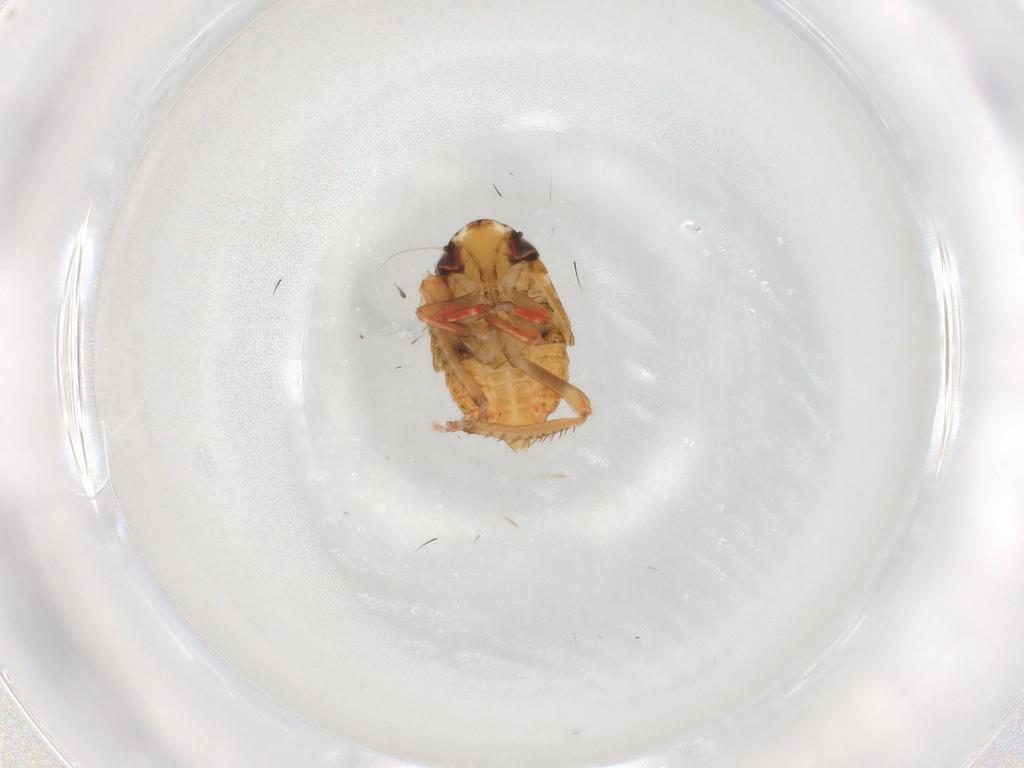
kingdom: Animalia
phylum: Arthropoda
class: Insecta
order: Hemiptera
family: Cicadellidae
